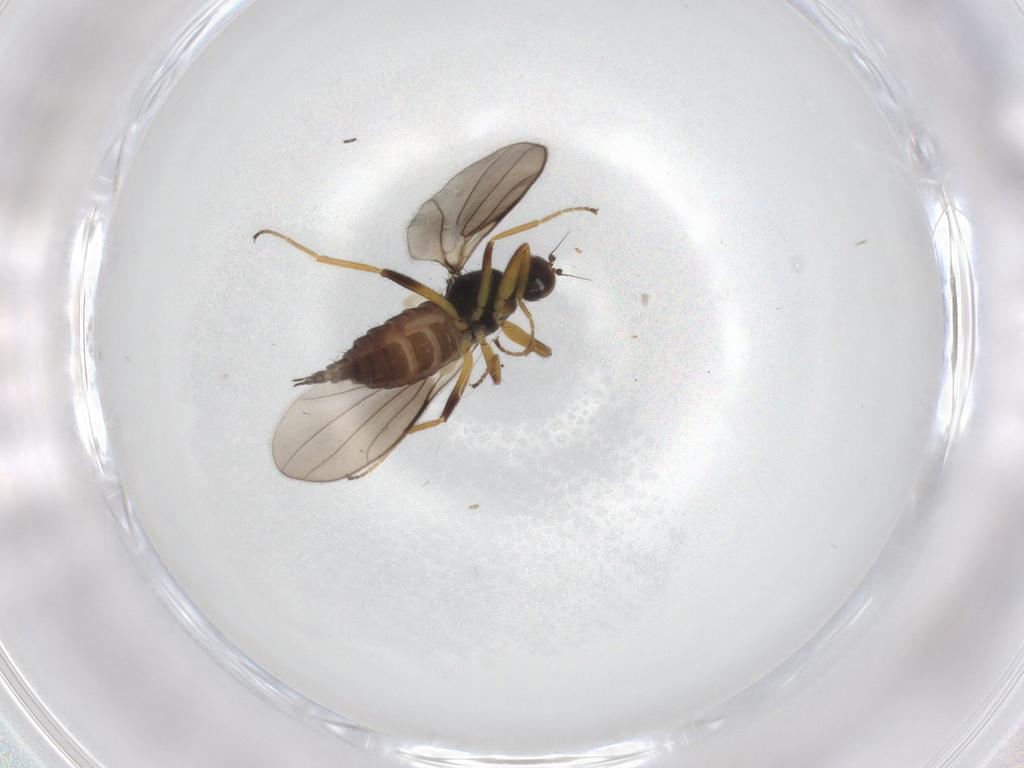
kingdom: Animalia
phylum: Arthropoda
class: Insecta
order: Diptera
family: Hybotidae
